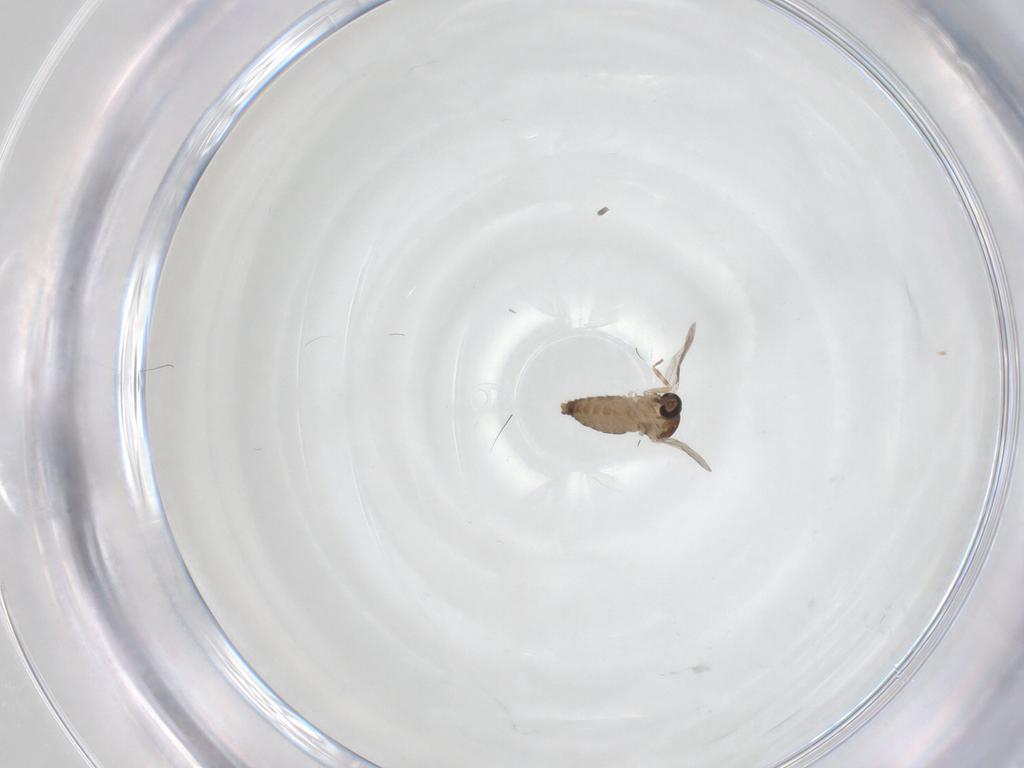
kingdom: Animalia
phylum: Arthropoda
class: Insecta
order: Diptera
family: Ceratopogonidae
